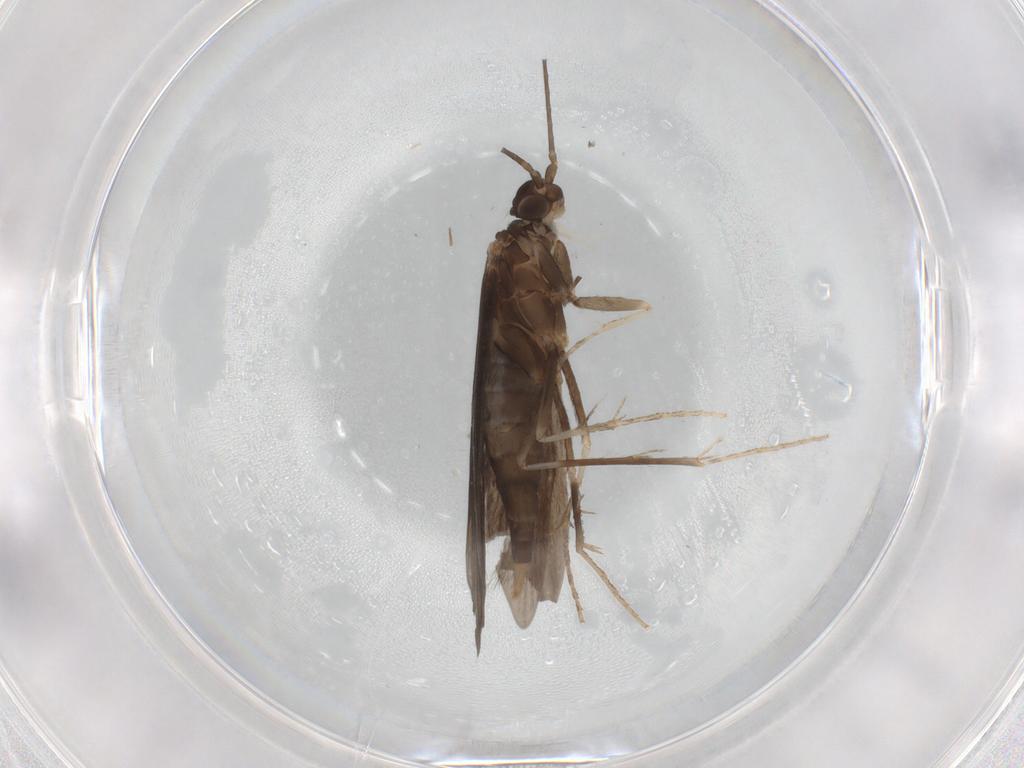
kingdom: Animalia
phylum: Arthropoda
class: Insecta
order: Trichoptera
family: Xiphocentronidae
